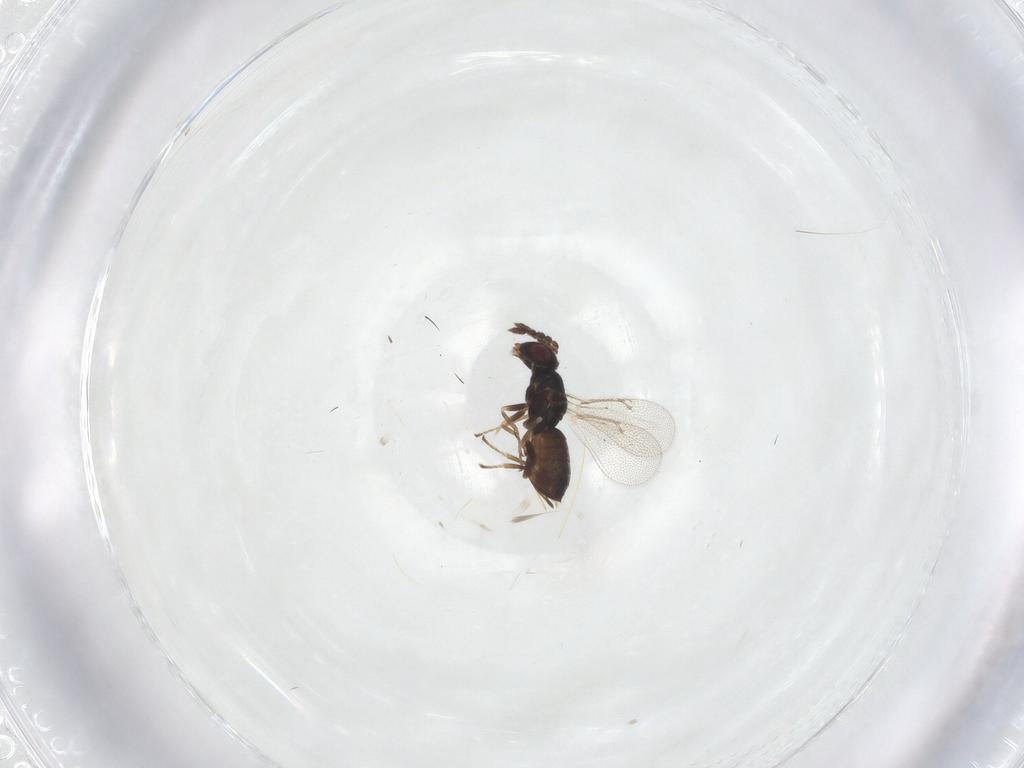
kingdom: Animalia
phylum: Arthropoda
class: Insecta
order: Hymenoptera
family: Eulophidae
